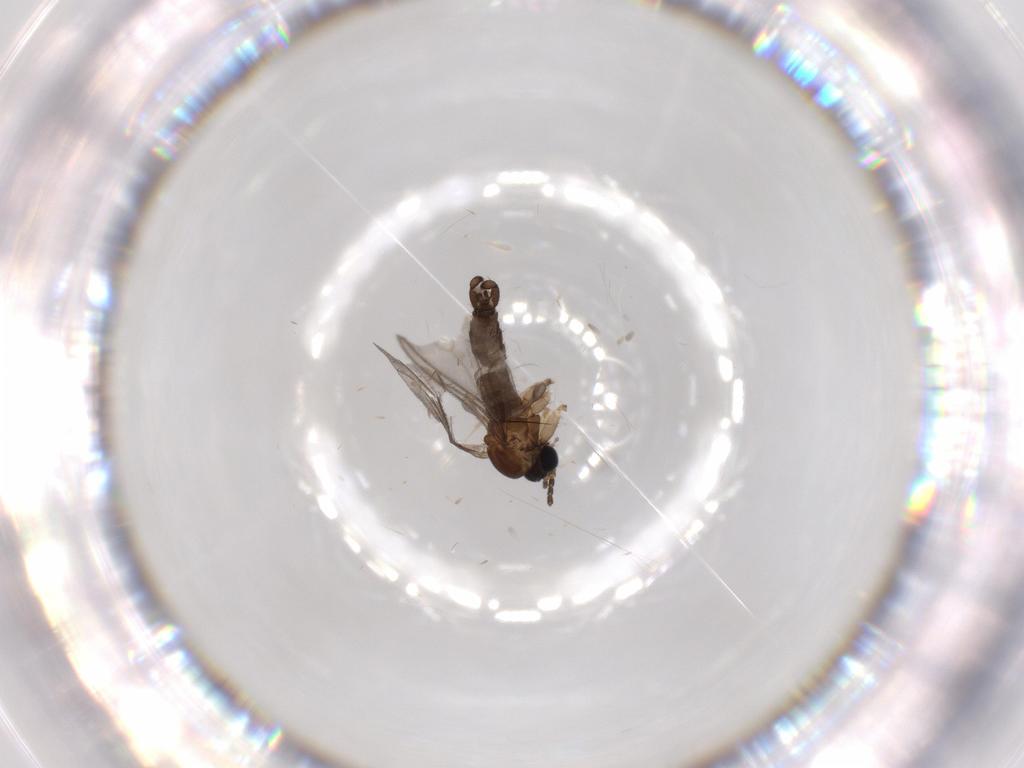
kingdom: Animalia
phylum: Arthropoda
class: Insecta
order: Diptera
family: Sciaridae
